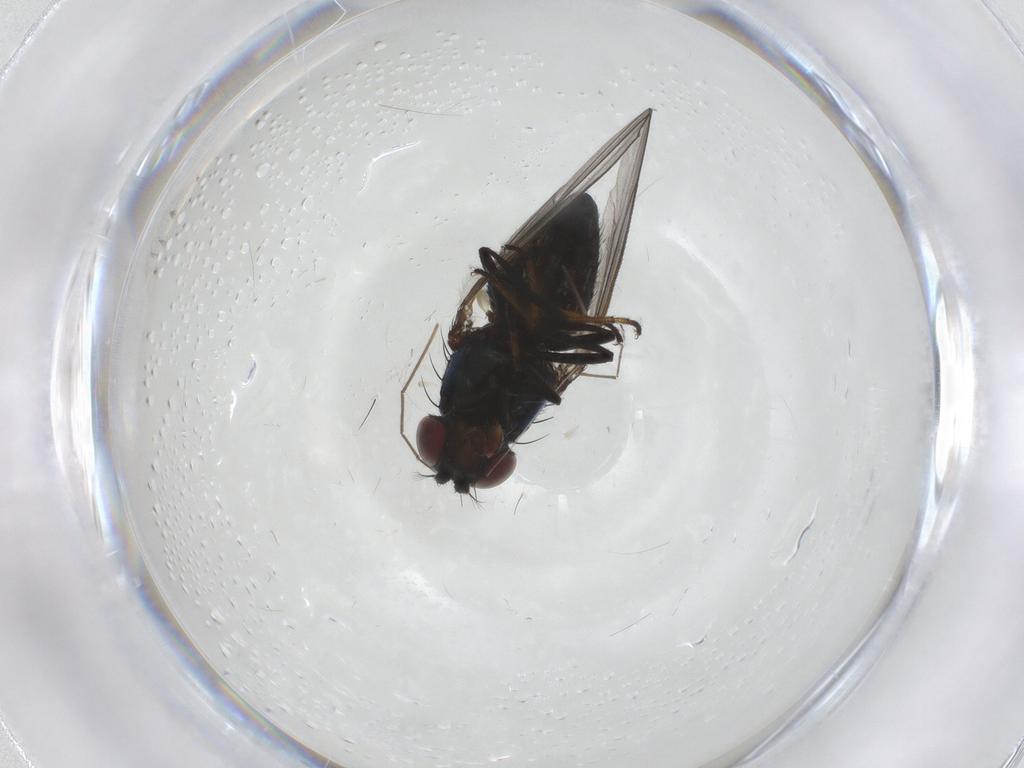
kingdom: Animalia
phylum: Arthropoda
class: Insecta
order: Diptera
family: Chironomidae
